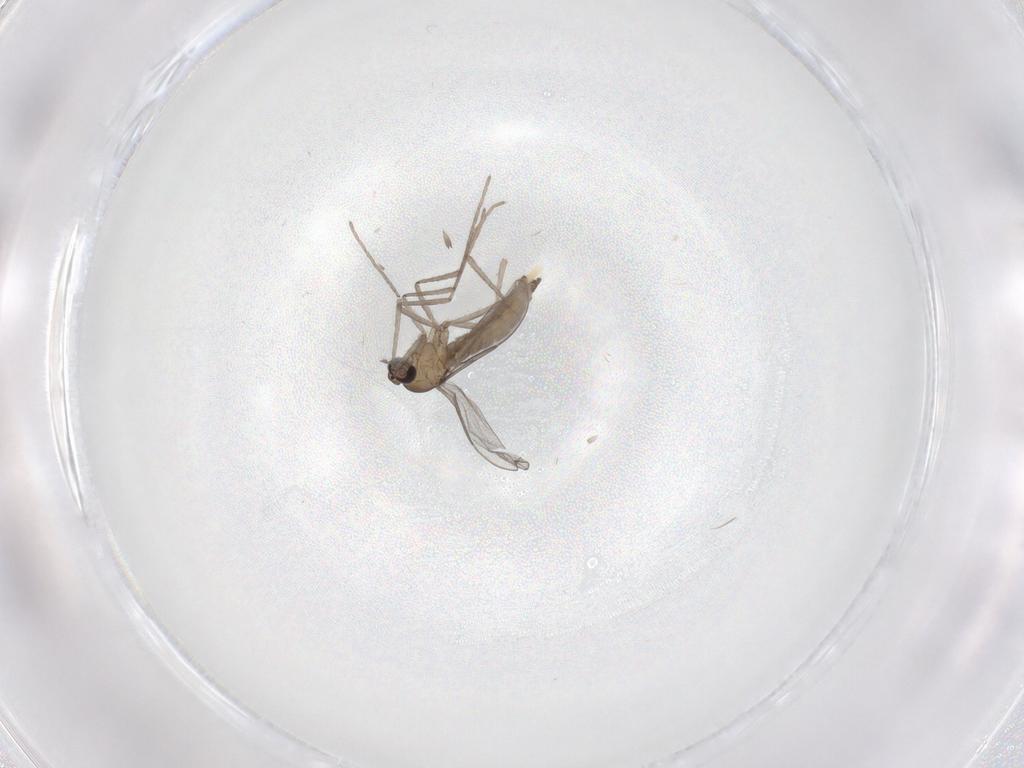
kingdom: Animalia
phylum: Arthropoda
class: Insecta
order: Diptera
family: Cecidomyiidae
